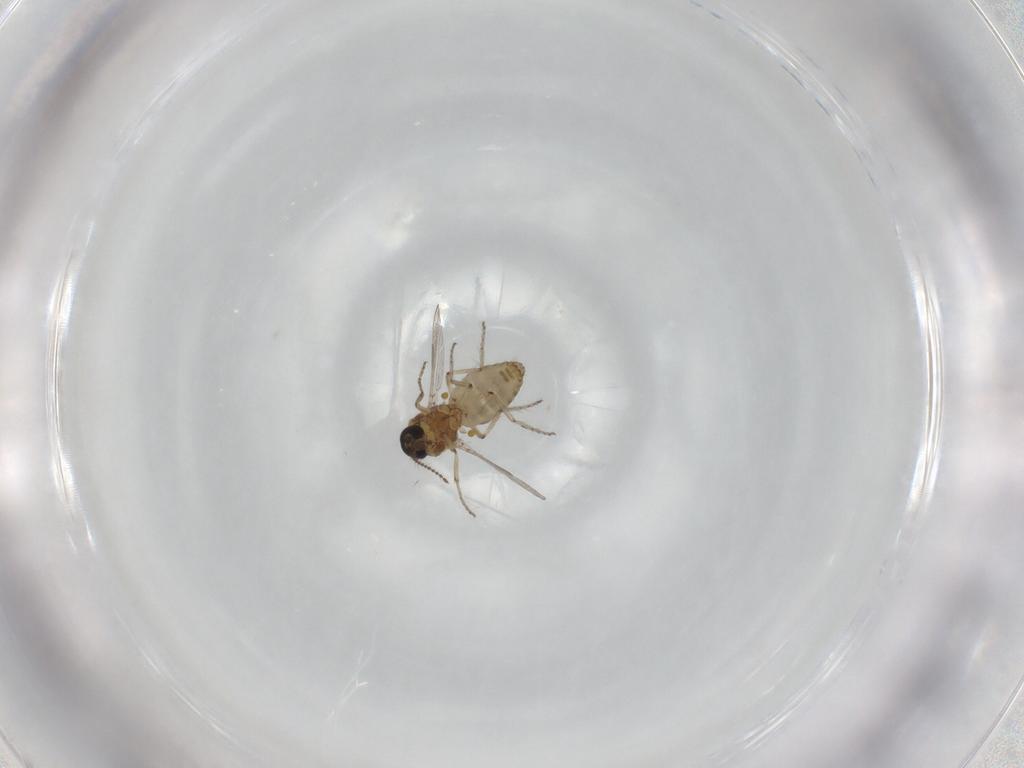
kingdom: Animalia
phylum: Arthropoda
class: Insecta
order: Diptera
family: Ceratopogonidae
